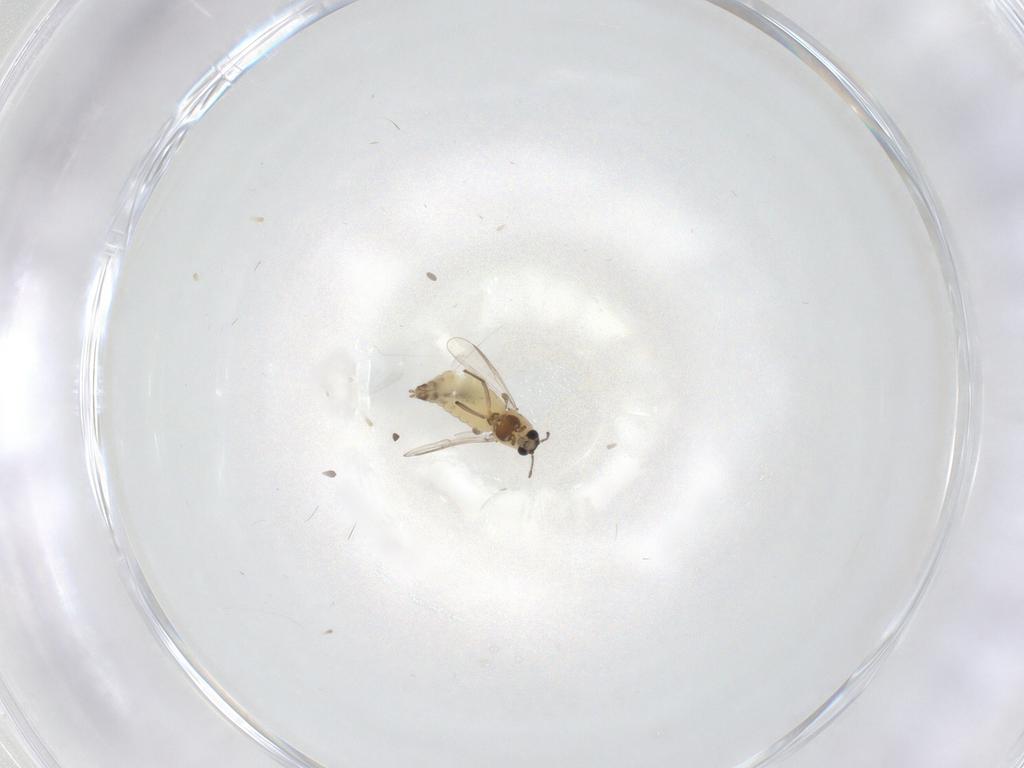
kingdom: Animalia
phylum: Arthropoda
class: Insecta
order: Diptera
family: Chironomidae
